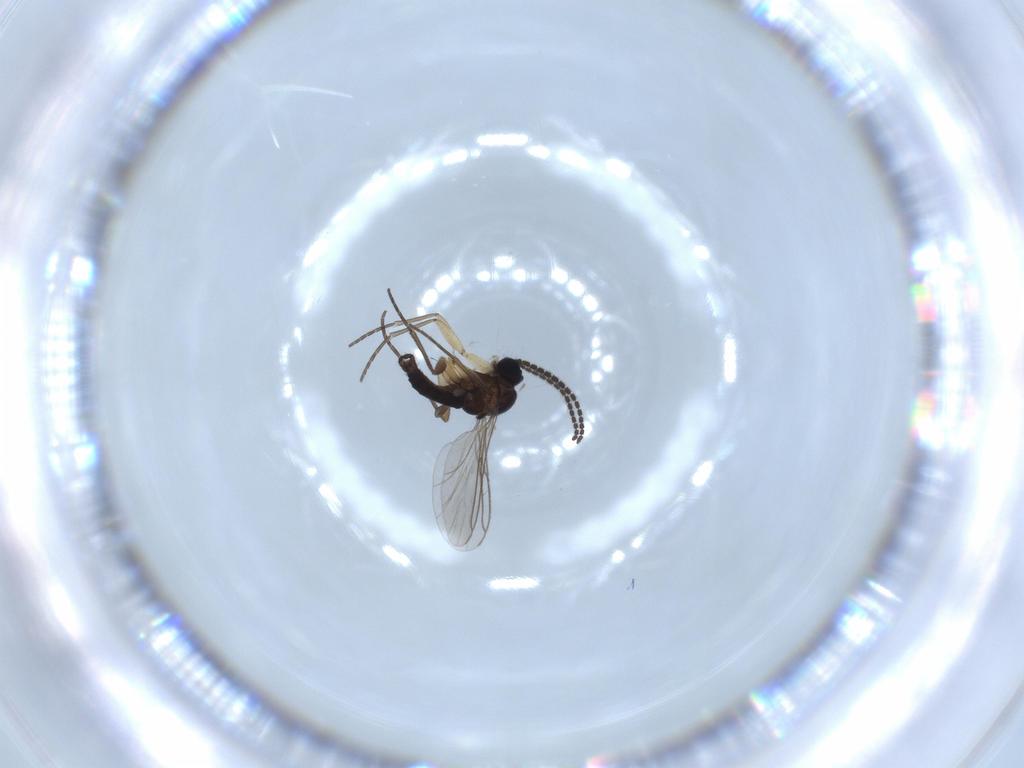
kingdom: Animalia
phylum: Arthropoda
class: Insecta
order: Diptera
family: Sciaridae
